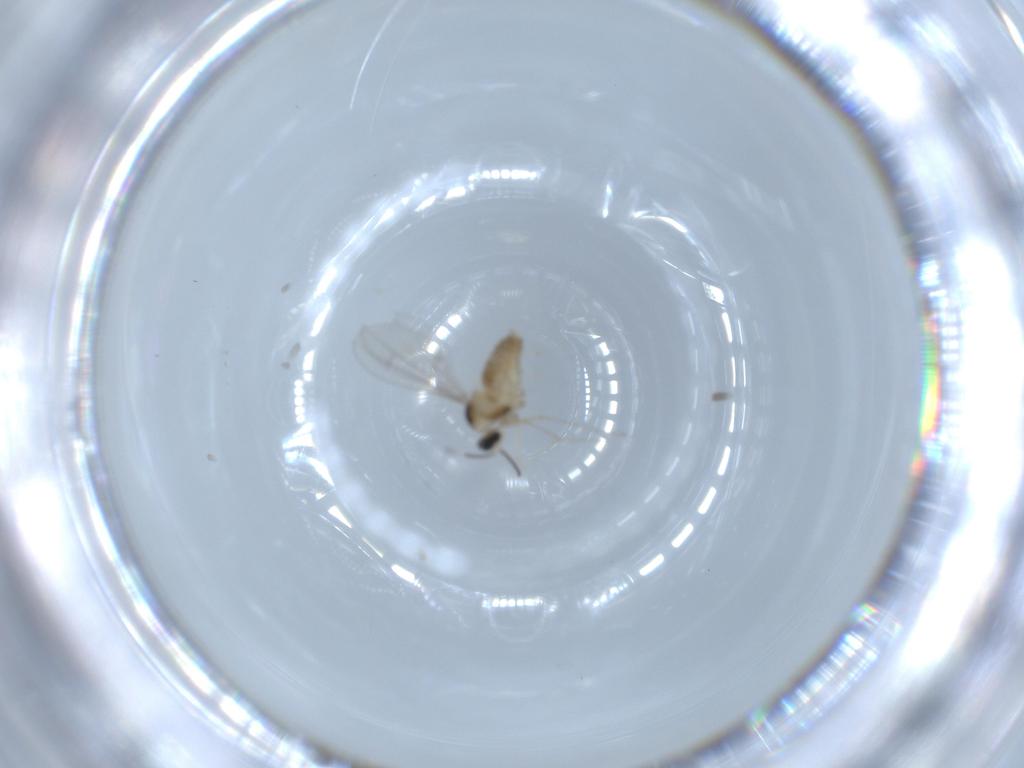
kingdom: Animalia
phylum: Arthropoda
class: Insecta
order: Diptera
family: Cecidomyiidae
